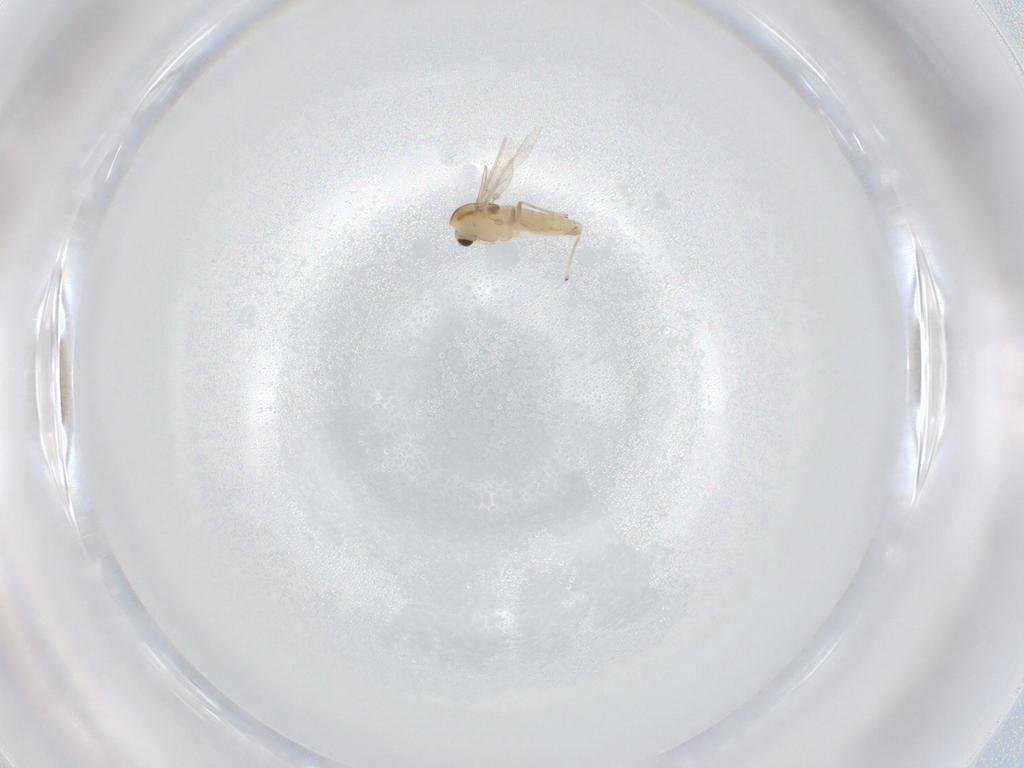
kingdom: Animalia
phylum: Arthropoda
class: Insecta
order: Diptera
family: Chironomidae
